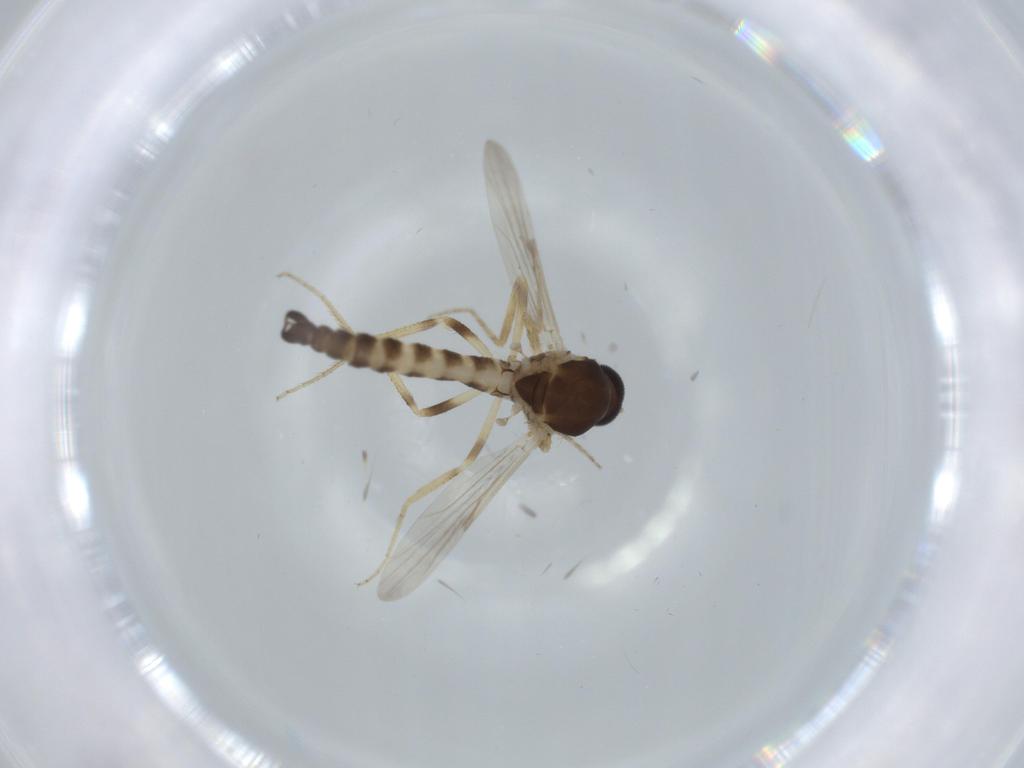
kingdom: Animalia
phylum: Arthropoda
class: Insecta
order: Diptera
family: Ceratopogonidae
